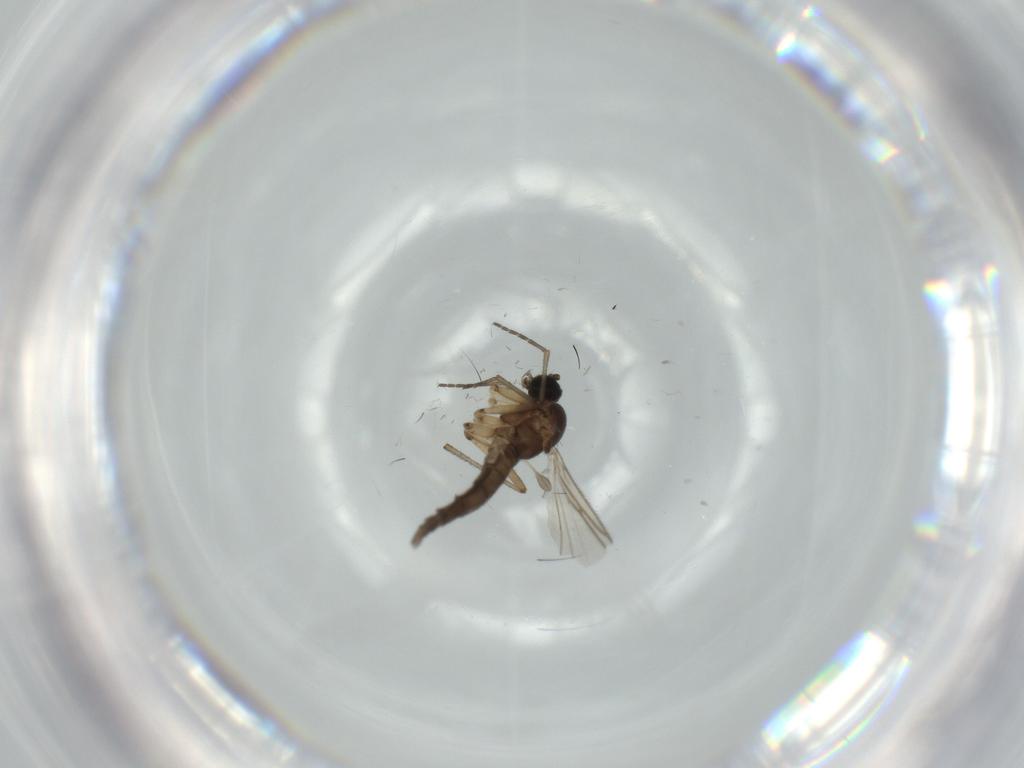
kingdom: Animalia
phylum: Arthropoda
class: Insecta
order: Diptera
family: Sciaridae
